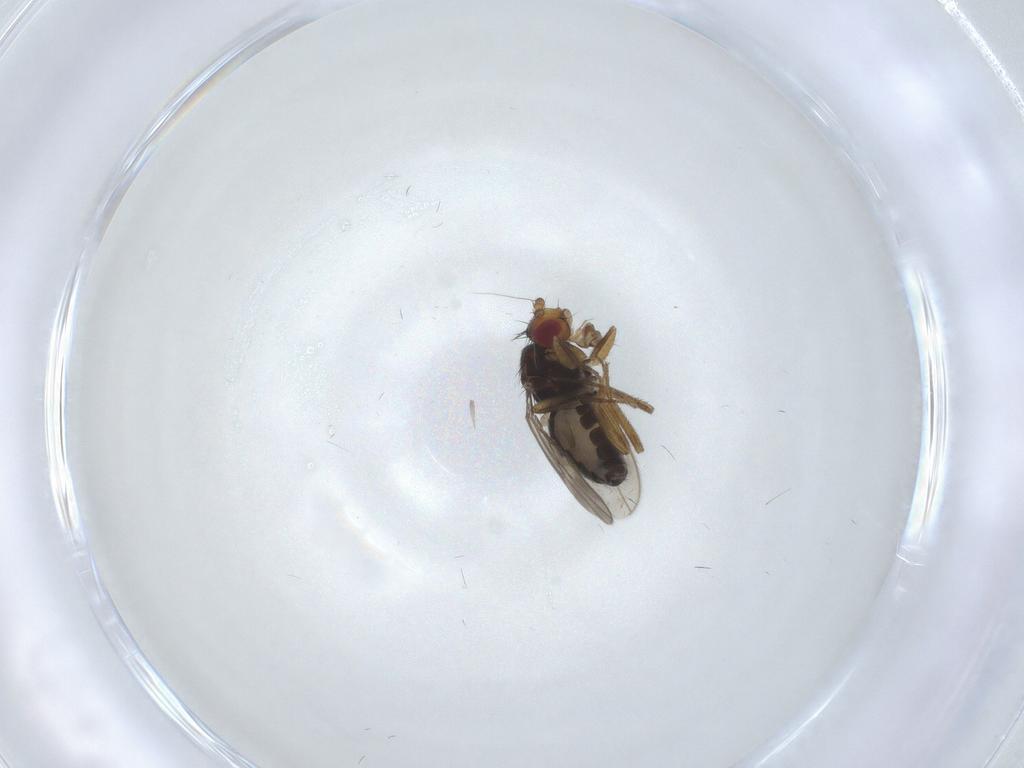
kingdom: Animalia
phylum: Arthropoda
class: Insecta
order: Diptera
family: Sphaeroceridae
